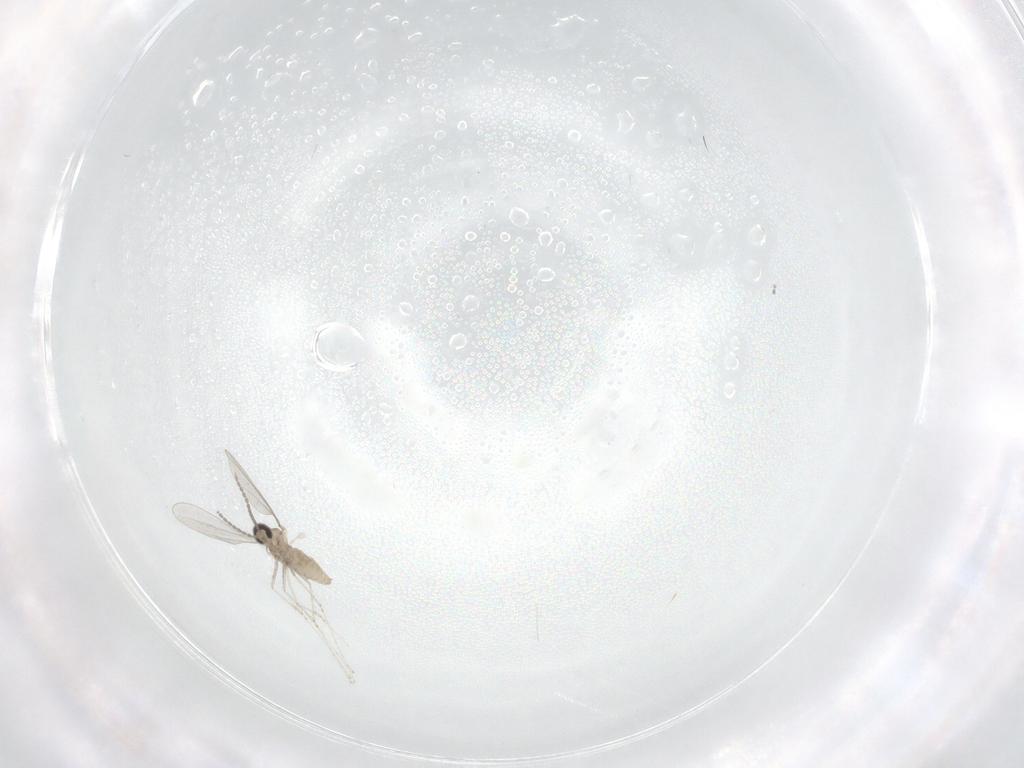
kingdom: Animalia
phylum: Arthropoda
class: Insecta
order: Diptera
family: Cecidomyiidae
